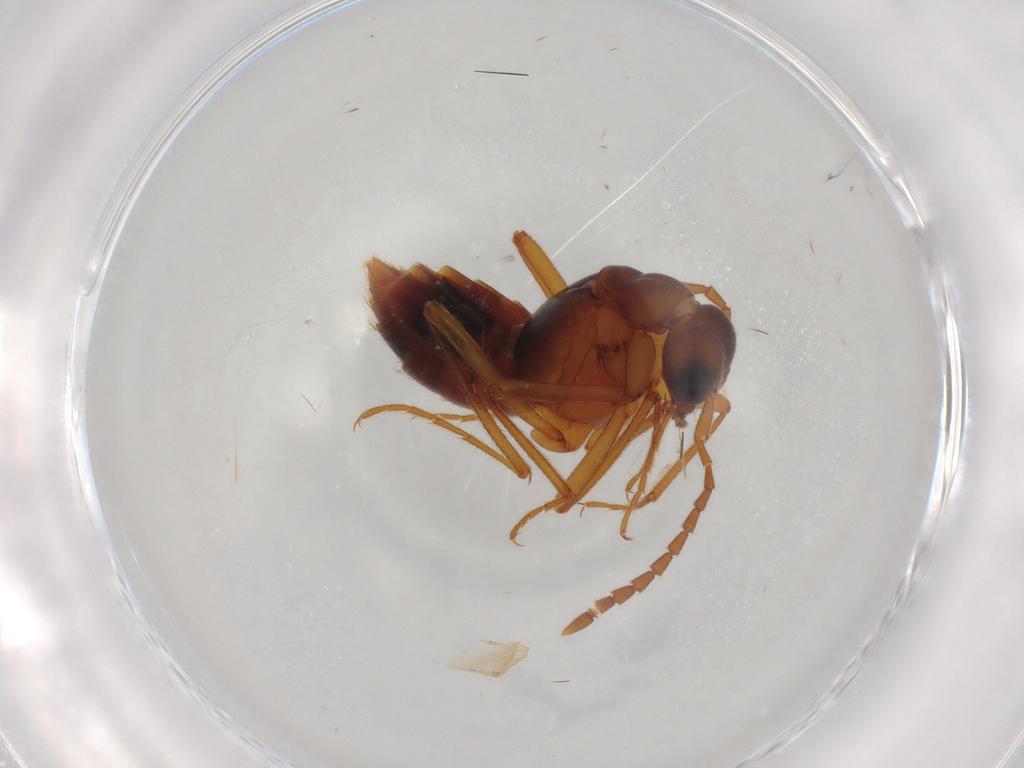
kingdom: Animalia
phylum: Arthropoda
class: Insecta
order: Coleoptera
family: Staphylinidae
